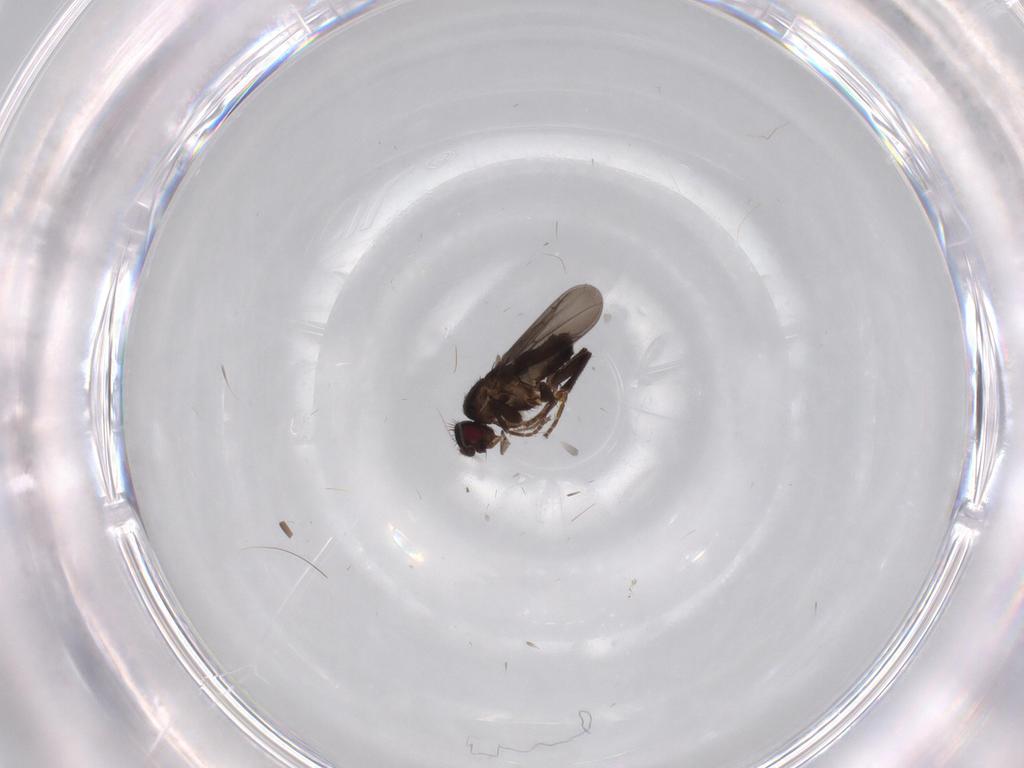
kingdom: Animalia
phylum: Arthropoda
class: Insecta
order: Diptera
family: Sphaeroceridae
